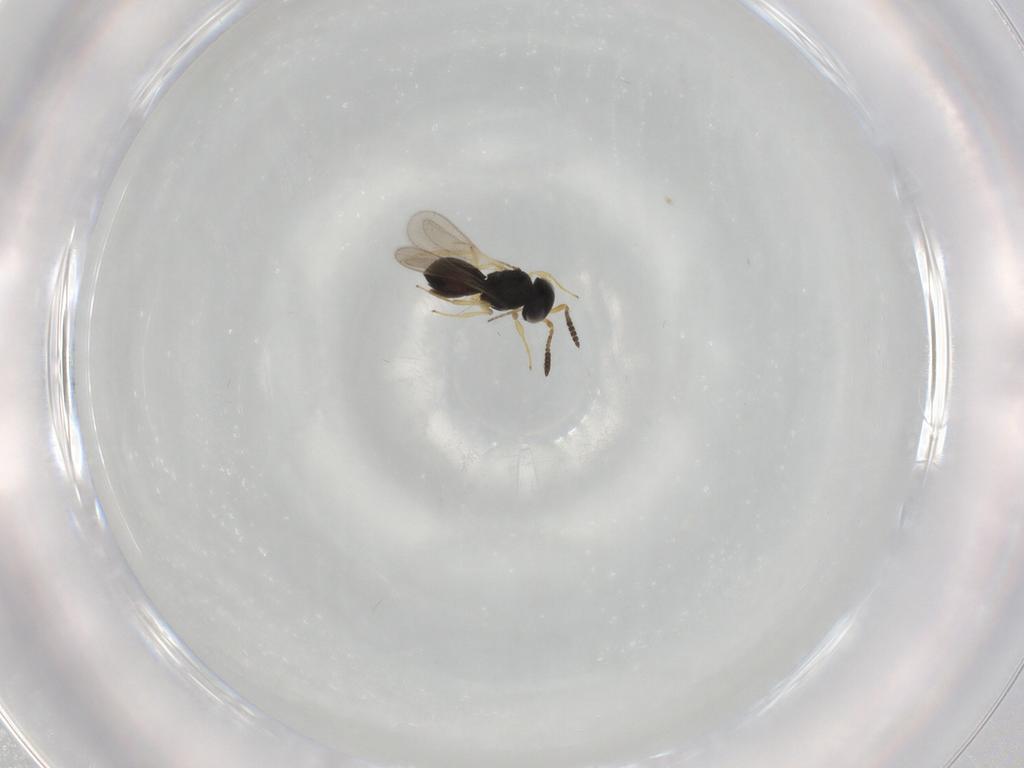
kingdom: Animalia
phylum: Arthropoda
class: Insecta
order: Hymenoptera
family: Scelionidae
